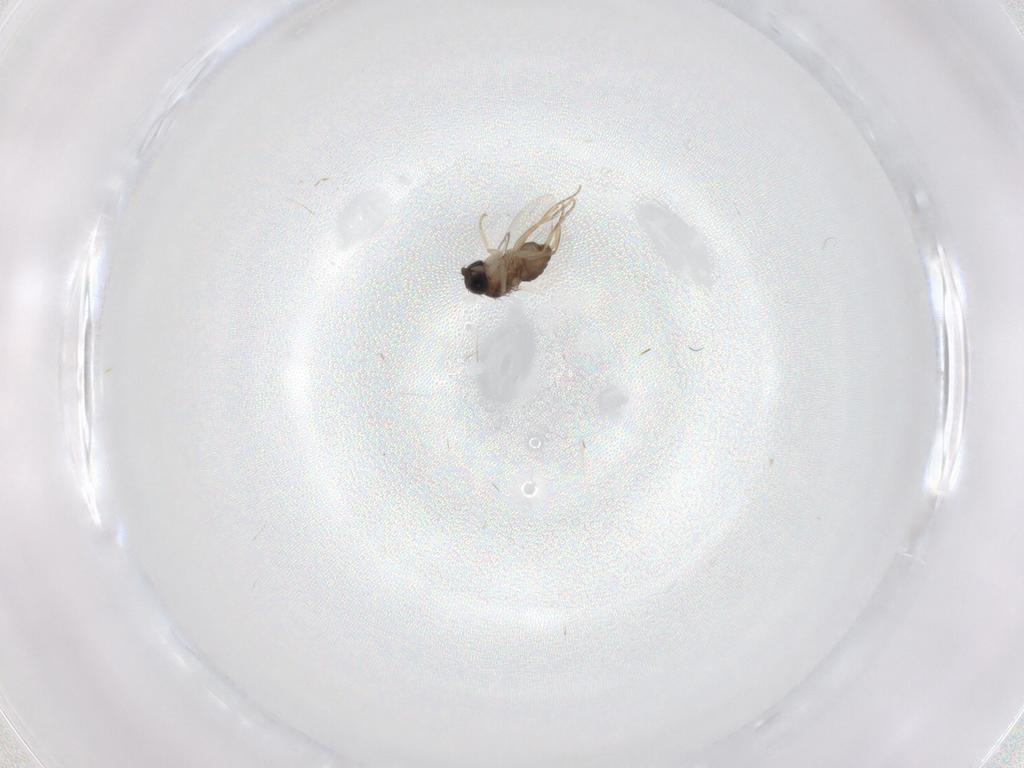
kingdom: Animalia
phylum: Arthropoda
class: Insecta
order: Diptera
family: Phoridae
